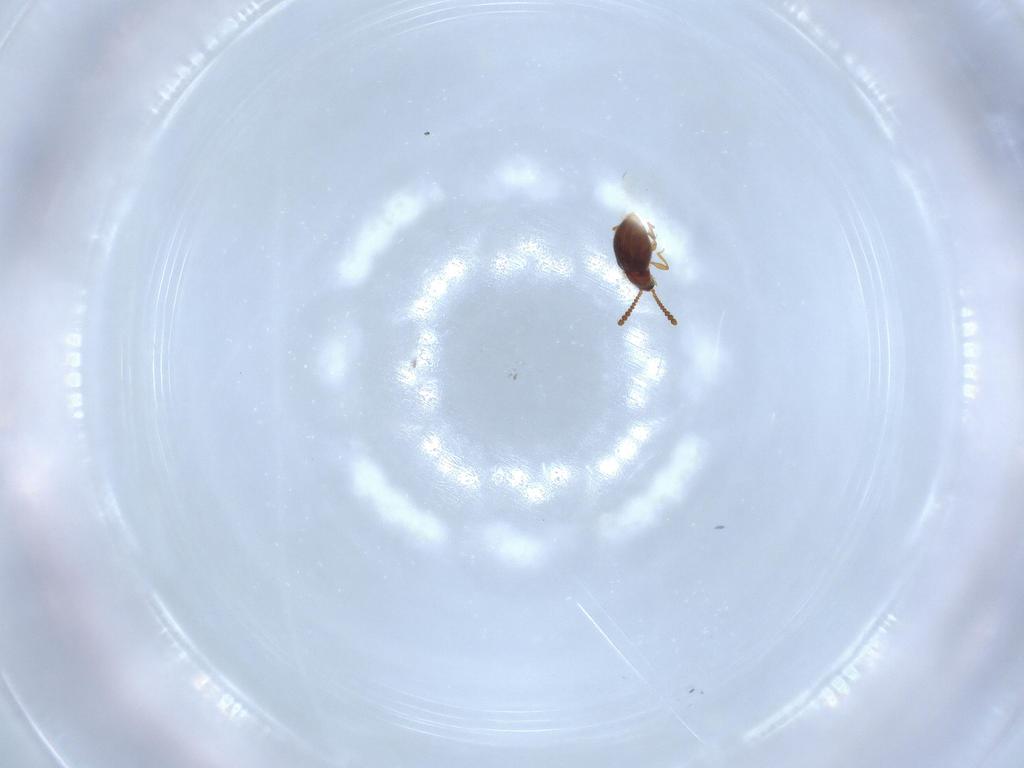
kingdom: Animalia
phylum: Arthropoda
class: Insecta
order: Coleoptera
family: Staphylinidae
